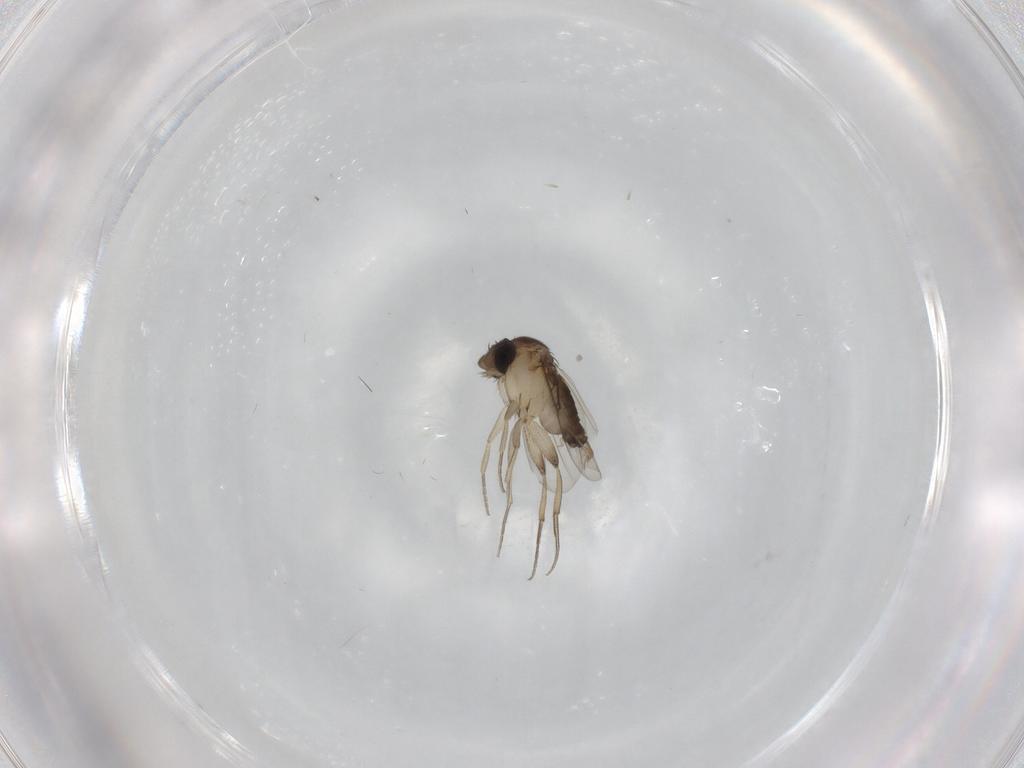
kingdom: Animalia
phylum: Arthropoda
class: Insecta
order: Diptera
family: Cecidomyiidae
